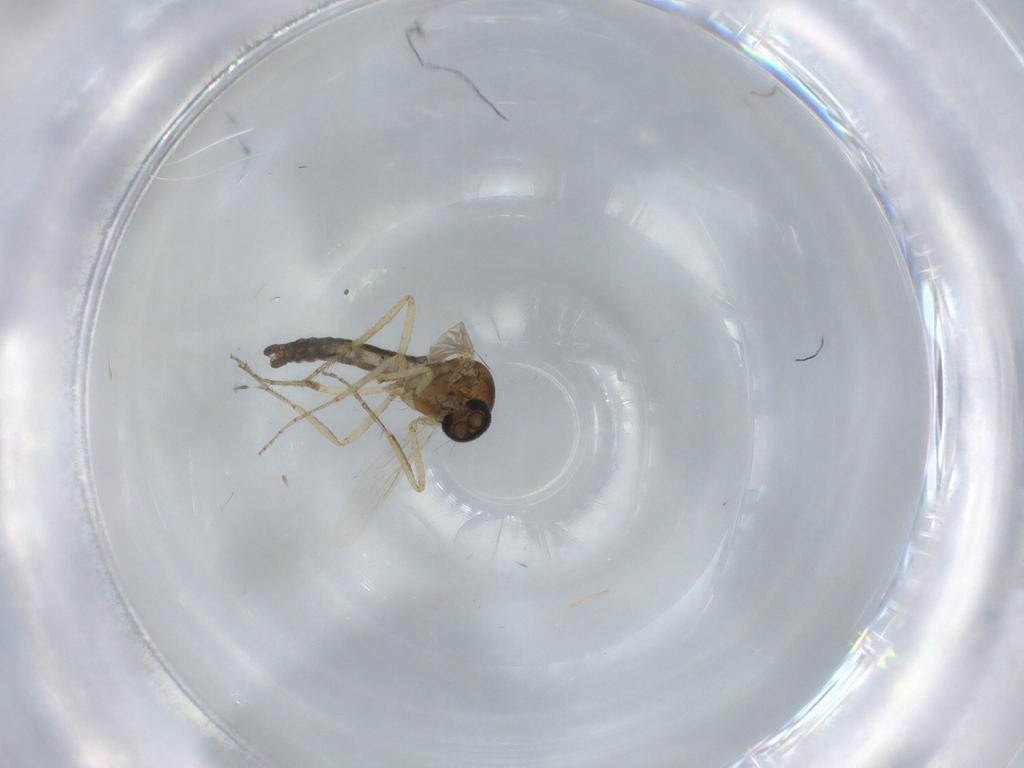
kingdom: Animalia
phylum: Arthropoda
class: Insecta
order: Diptera
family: Ceratopogonidae
